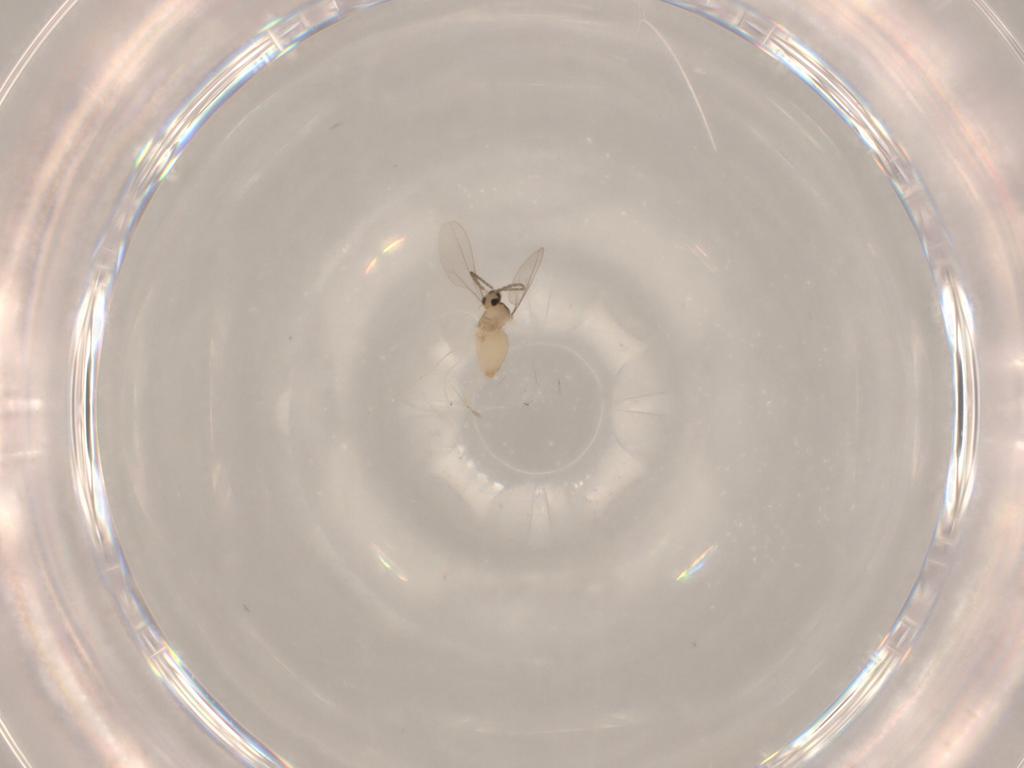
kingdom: Animalia
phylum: Arthropoda
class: Insecta
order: Diptera
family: Cecidomyiidae
